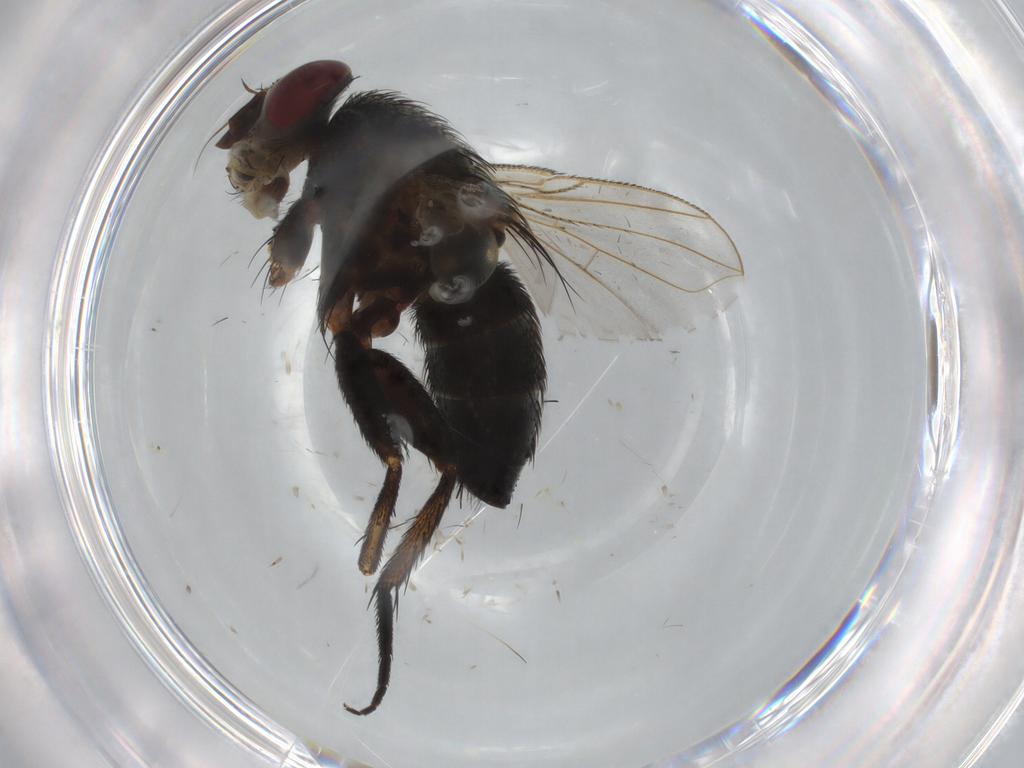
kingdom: Animalia
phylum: Arthropoda
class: Insecta
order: Diptera
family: Tachinidae
